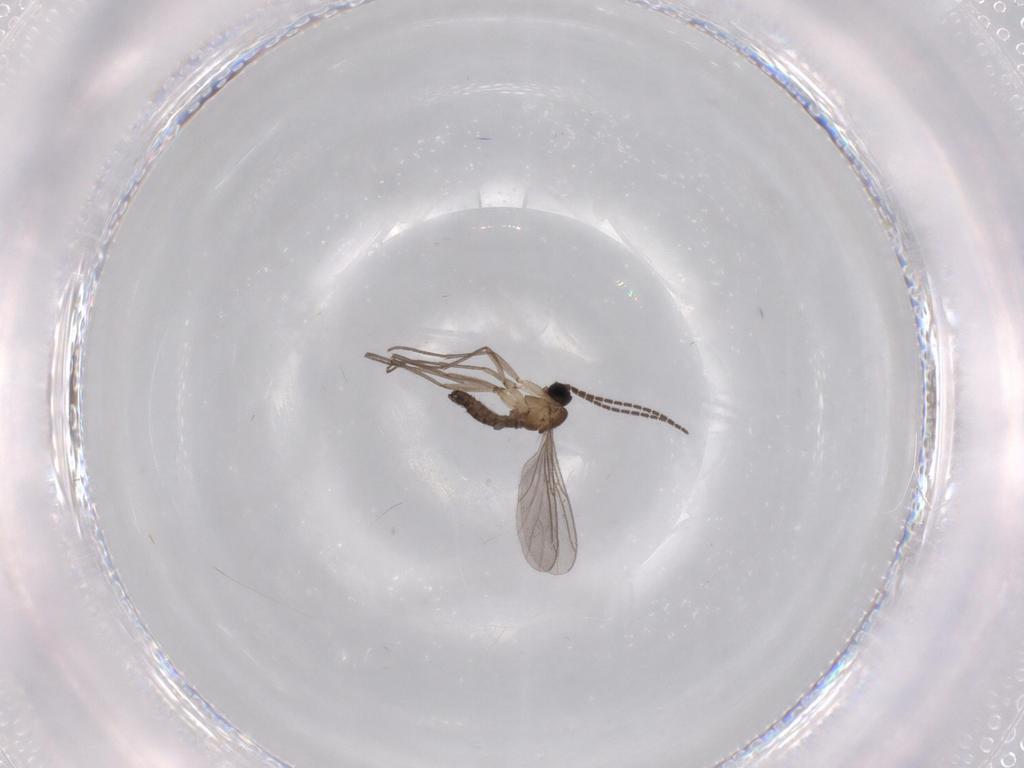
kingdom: Animalia
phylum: Arthropoda
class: Insecta
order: Diptera
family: Sciaridae
